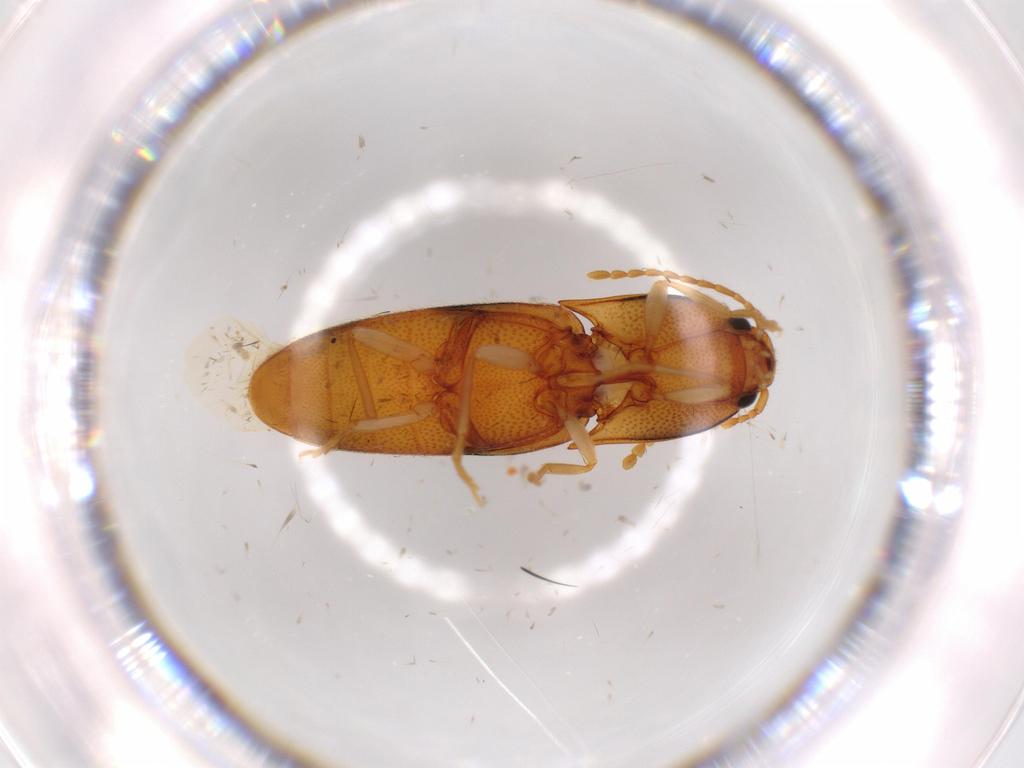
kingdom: Animalia
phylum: Arthropoda
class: Insecta
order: Coleoptera
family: Elateridae
